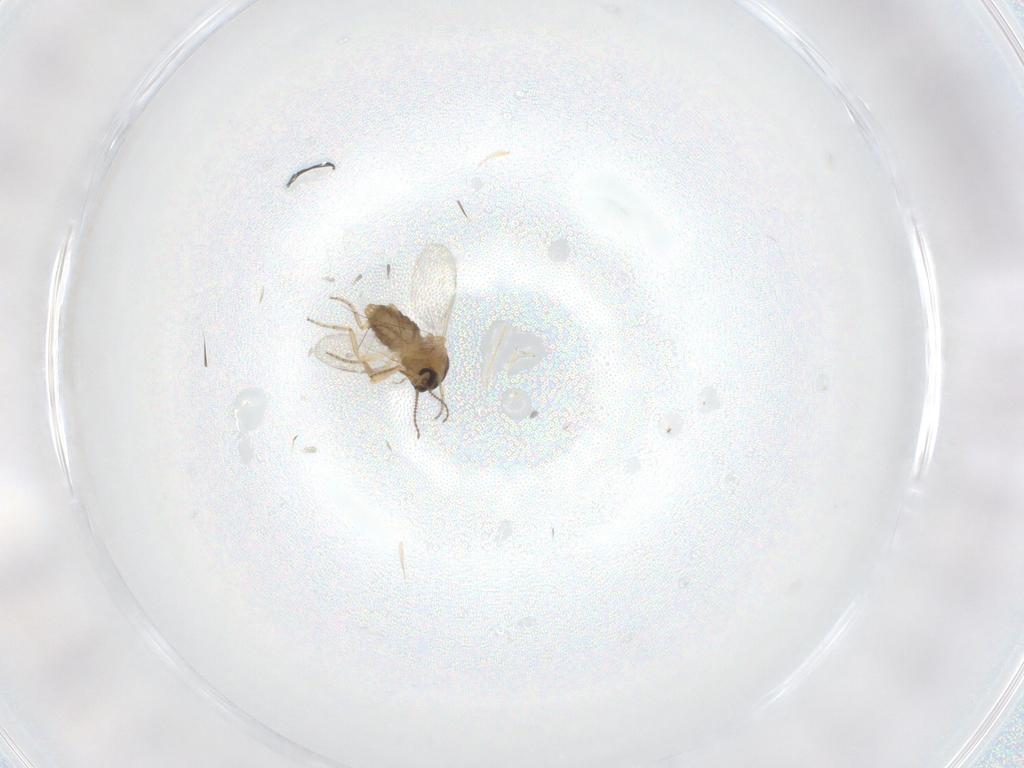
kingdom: Animalia
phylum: Arthropoda
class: Insecta
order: Diptera
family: Ceratopogonidae
